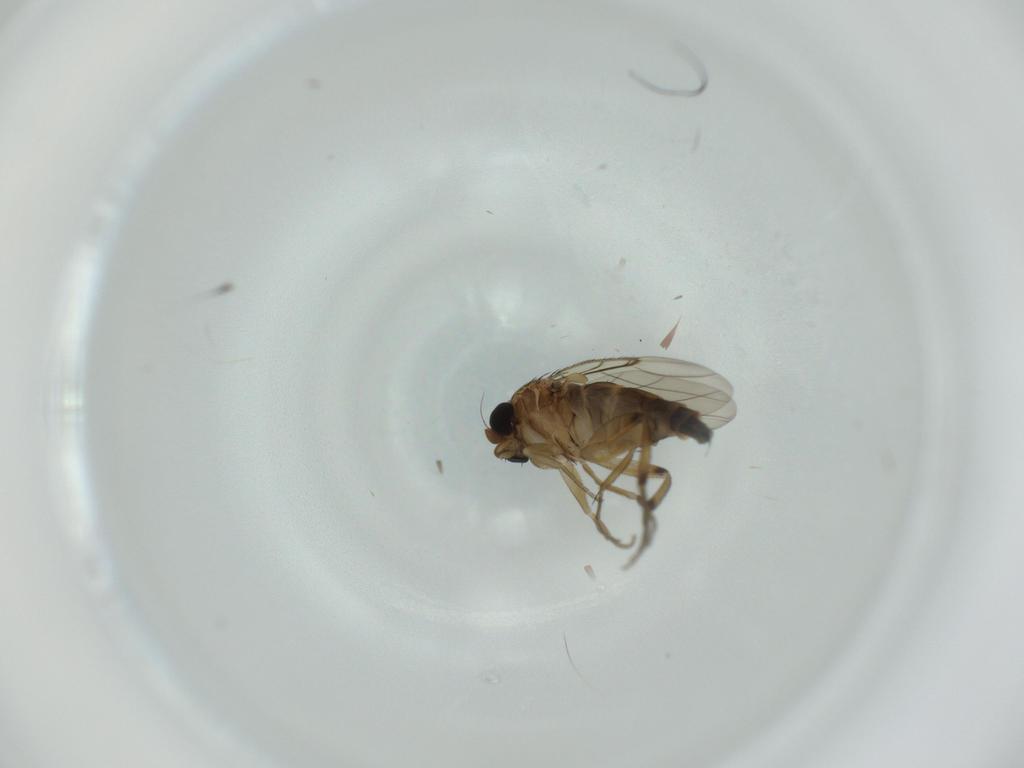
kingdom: Animalia
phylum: Arthropoda
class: Insecta
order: Diptera
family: Phoridae
